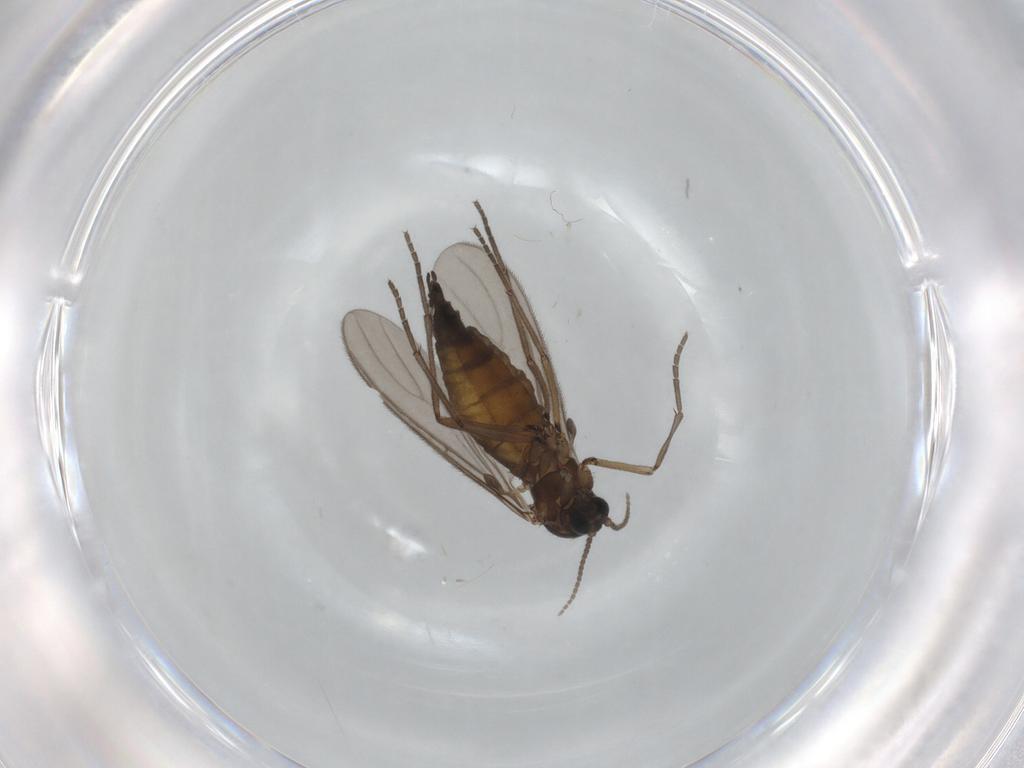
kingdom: Animalia
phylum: Arthropoda
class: Insecta
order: Diptera
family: Sciaridae
